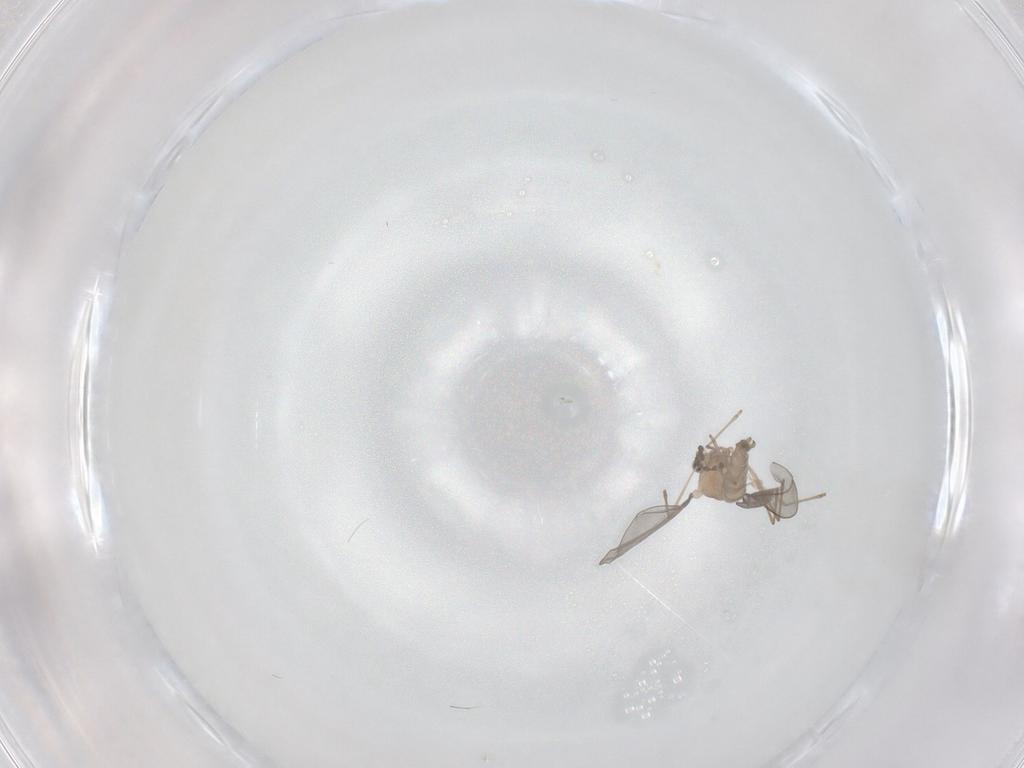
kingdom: Animalia
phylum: Arthropoda
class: Insecta
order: Diptera
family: Cecidomyiidae
